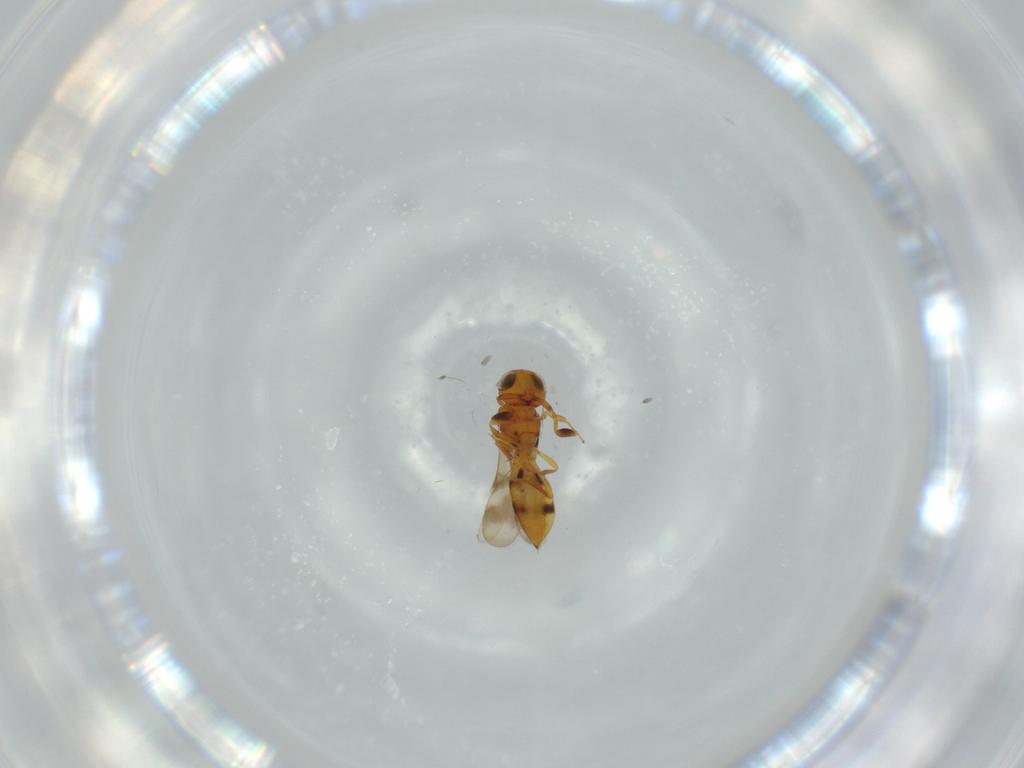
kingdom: Animalia
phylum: Arthropoda
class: Insecta
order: Hymenoptera
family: Scelionidae
